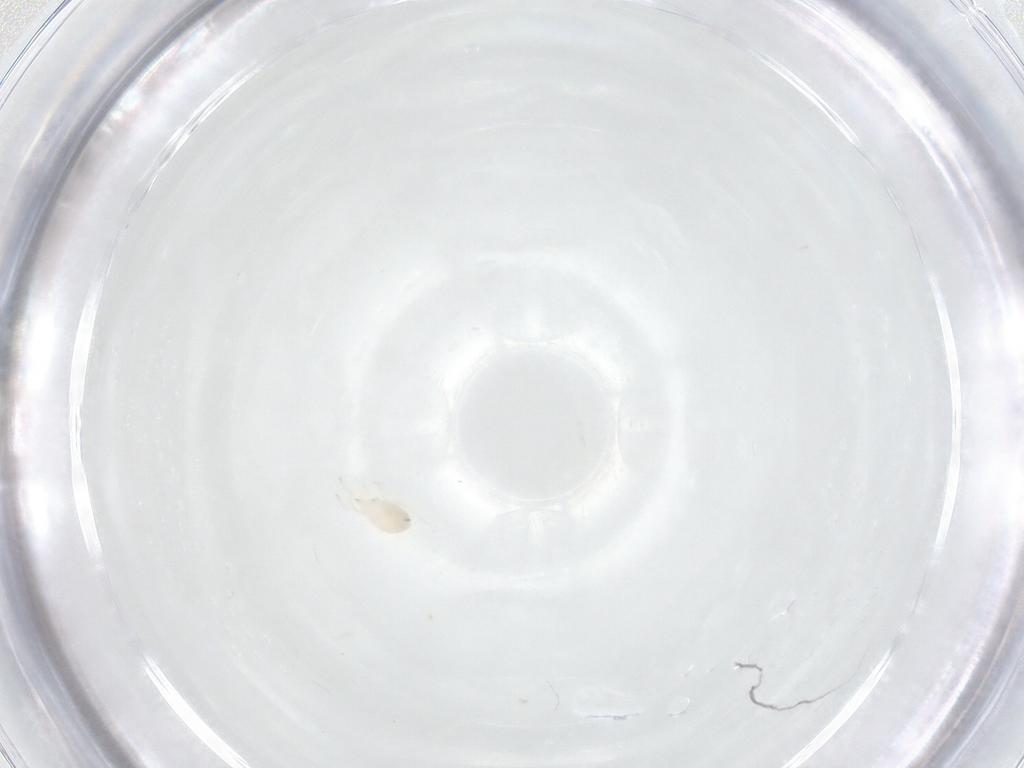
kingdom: Animalia
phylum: Arthropoda
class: Arachnida
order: Mesostigmata
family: Phytoseiidae
